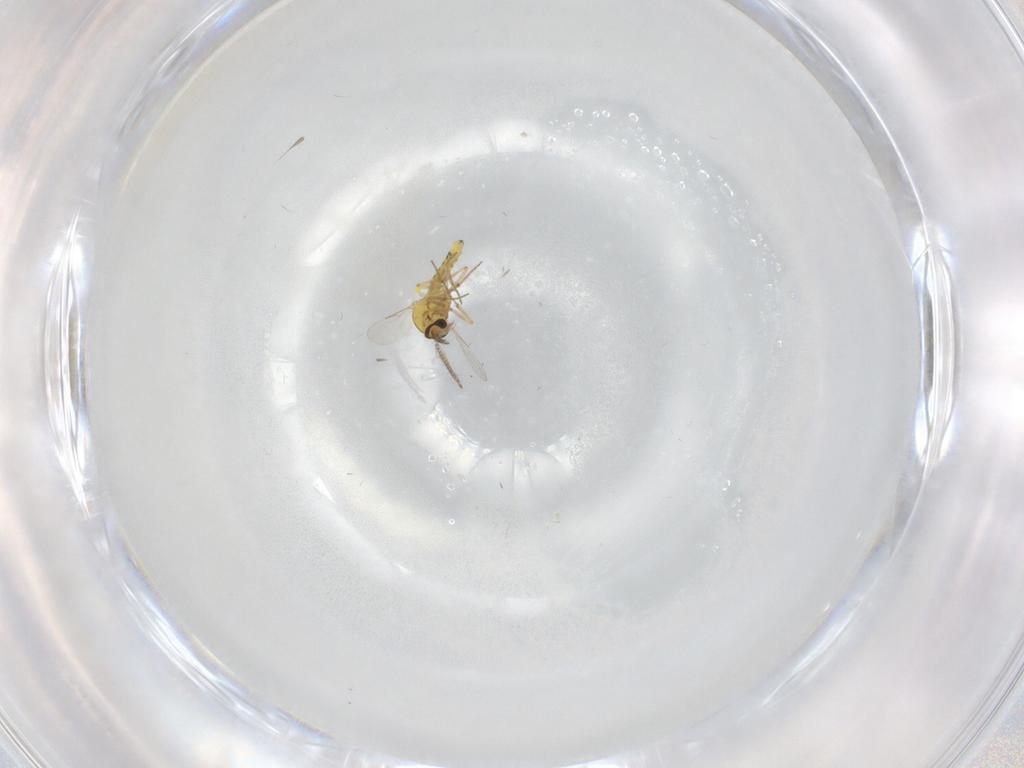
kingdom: Animalia
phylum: Arthropoda
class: Insecta
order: Diptera
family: Ceratopogonidae
